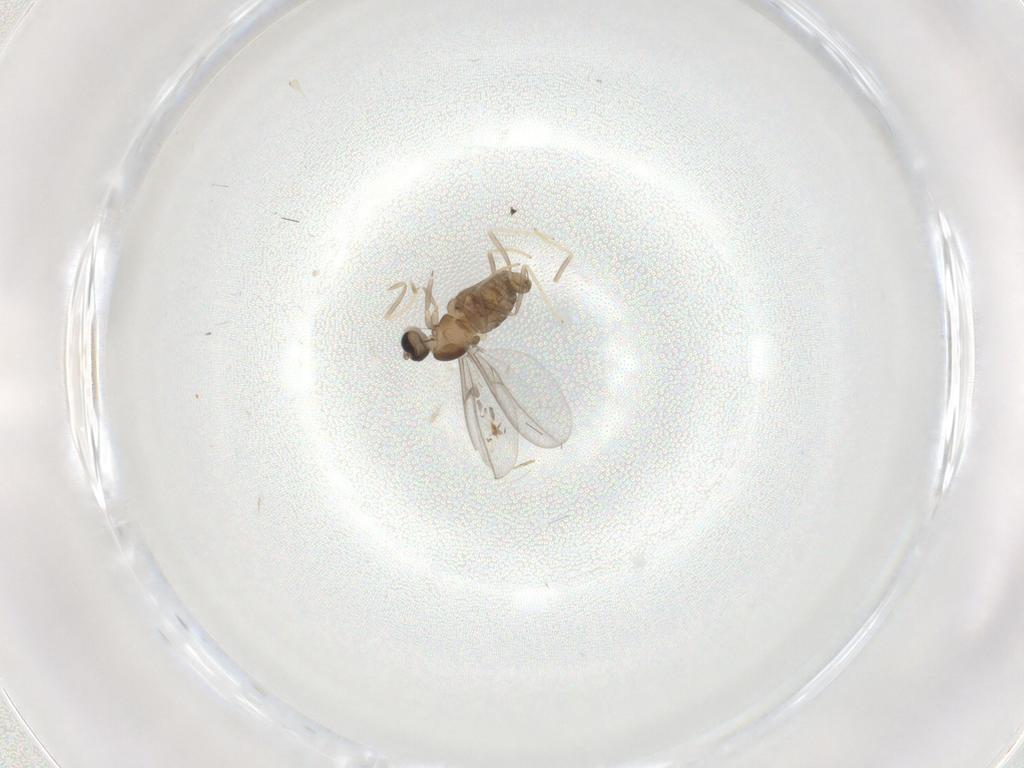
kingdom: Animalia
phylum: Arthropoda
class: Insecta
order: Diptera
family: Cecidomyiidae
